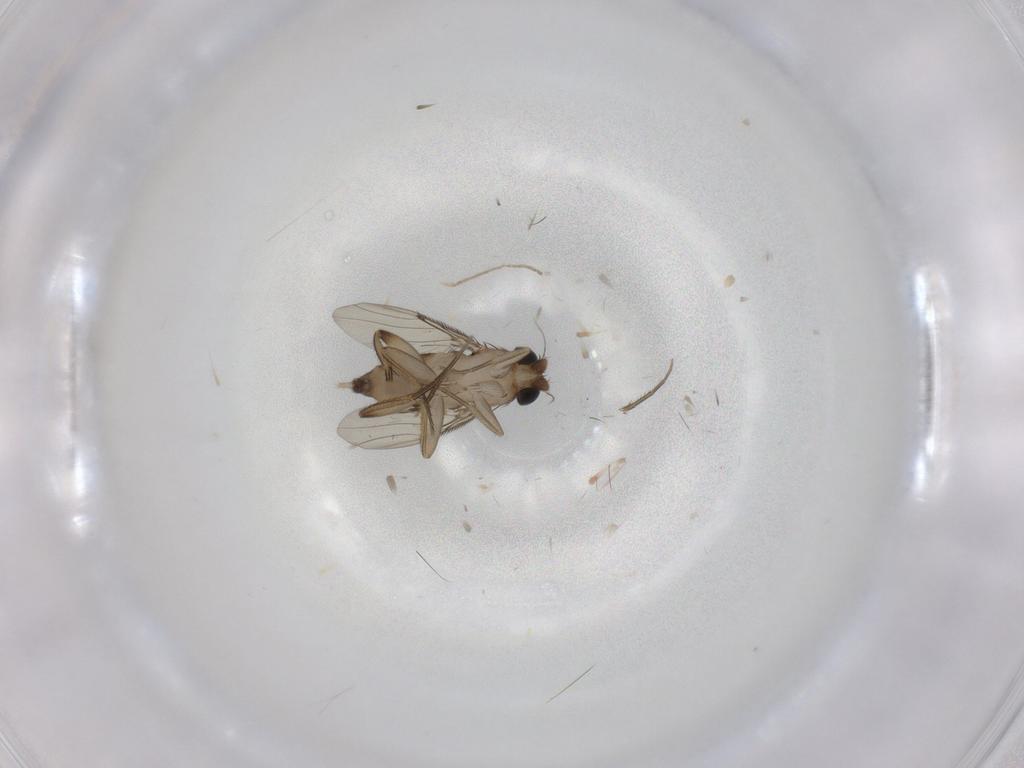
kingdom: Animalia
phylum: Arthropoda
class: Insecta
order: Diptera
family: Phoridae
